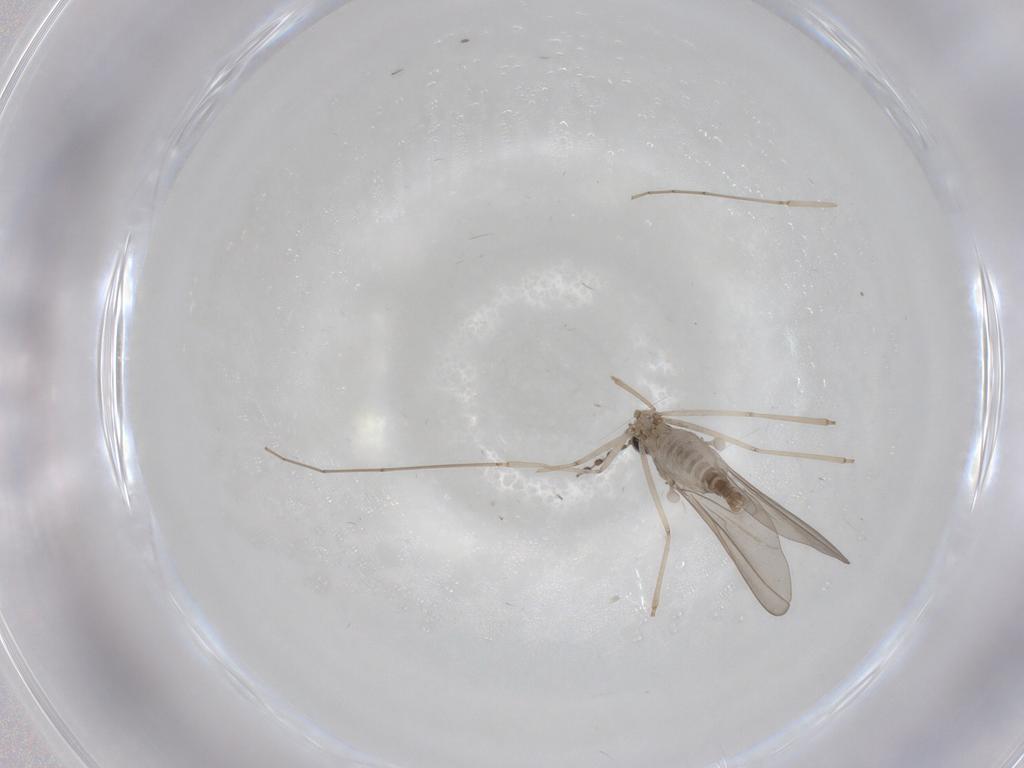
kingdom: Animalia
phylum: Arthropoda
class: Insecta
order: Diptera
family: Cecidomyiidae
